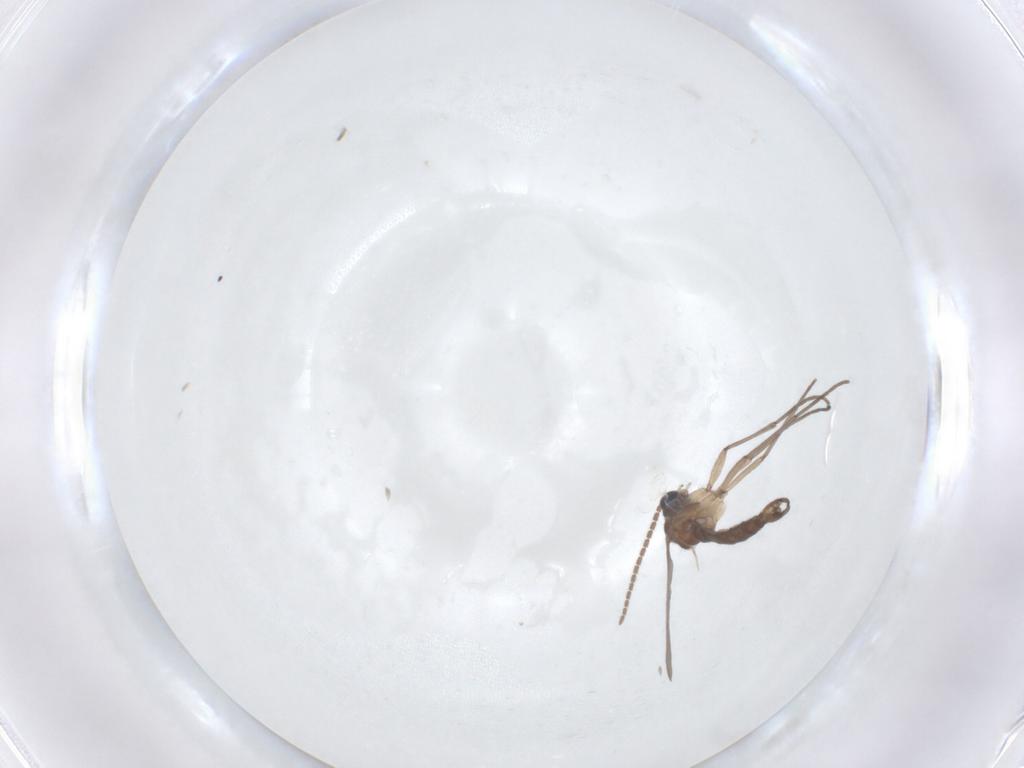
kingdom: Animalia
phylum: Arthropoda
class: Insecta
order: Diptera
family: Sciaridae
